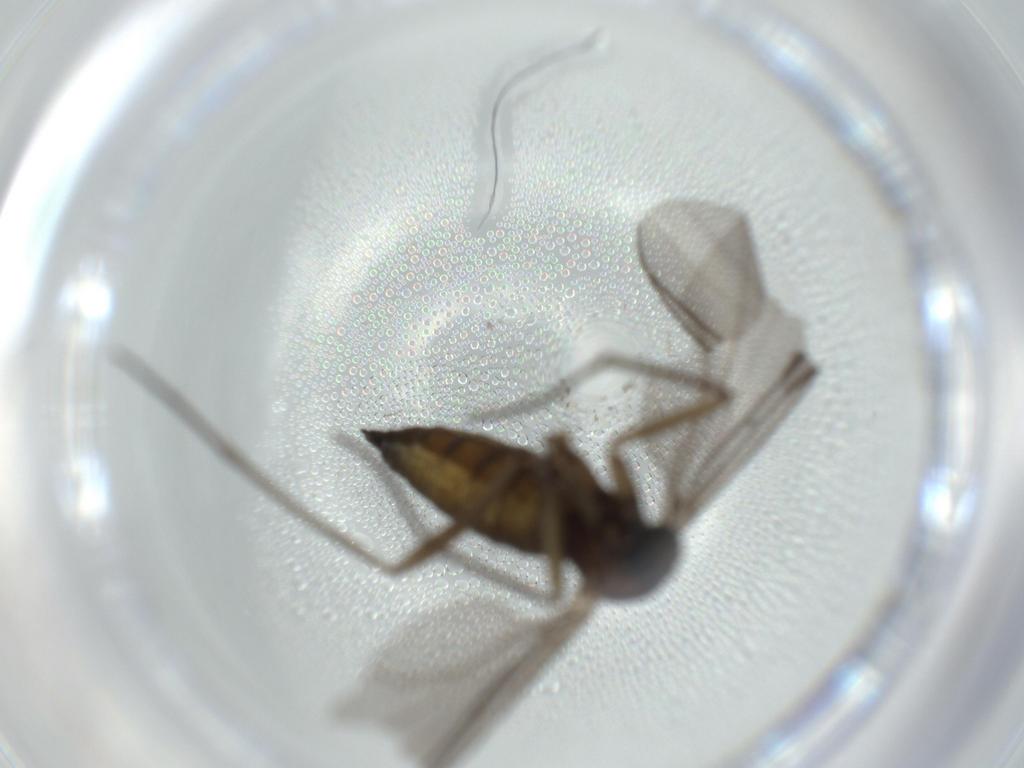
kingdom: Animalia
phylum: Arthropoda
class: Insecta
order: Diptera
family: Sciaridae
